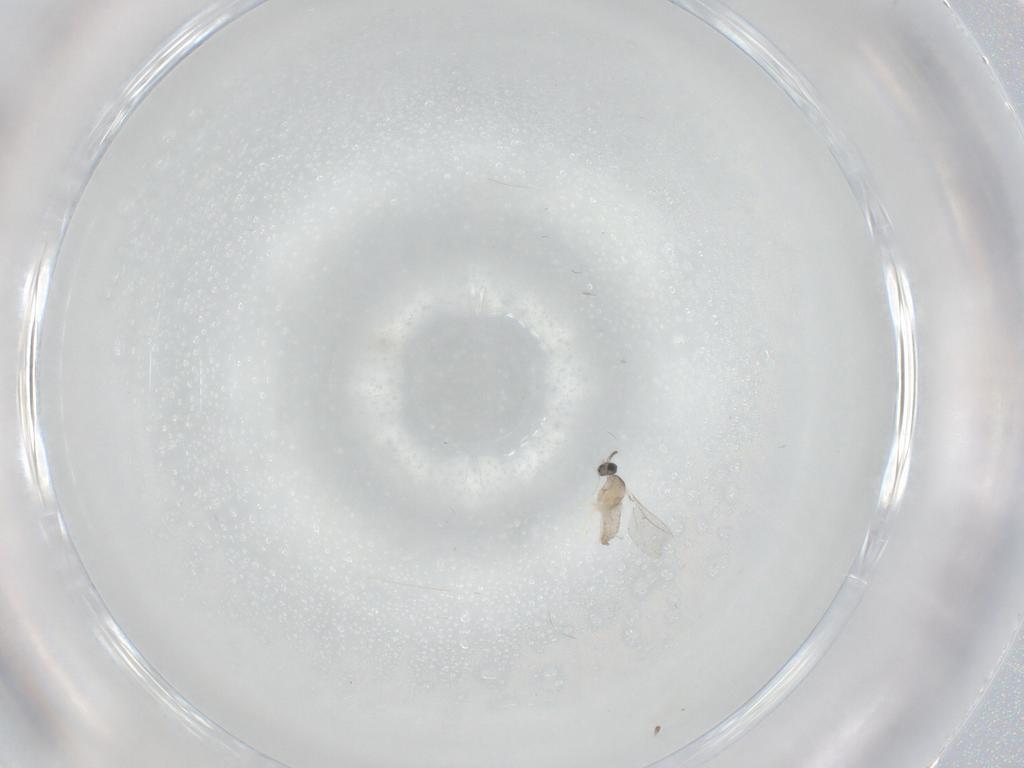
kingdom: Animalia
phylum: Arthropoda
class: Insecta
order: Diptera
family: Cecidomyiidae
